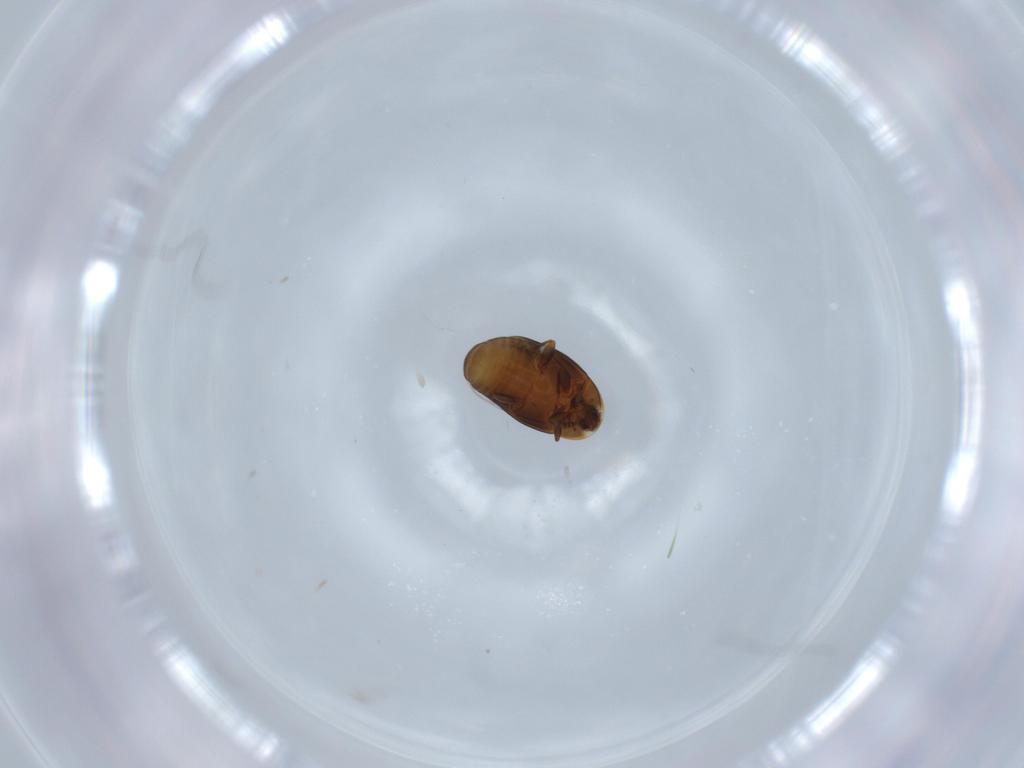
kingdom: Animalia
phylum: Arthropoda
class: Insecta
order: Coleoptera
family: Corylophidae
